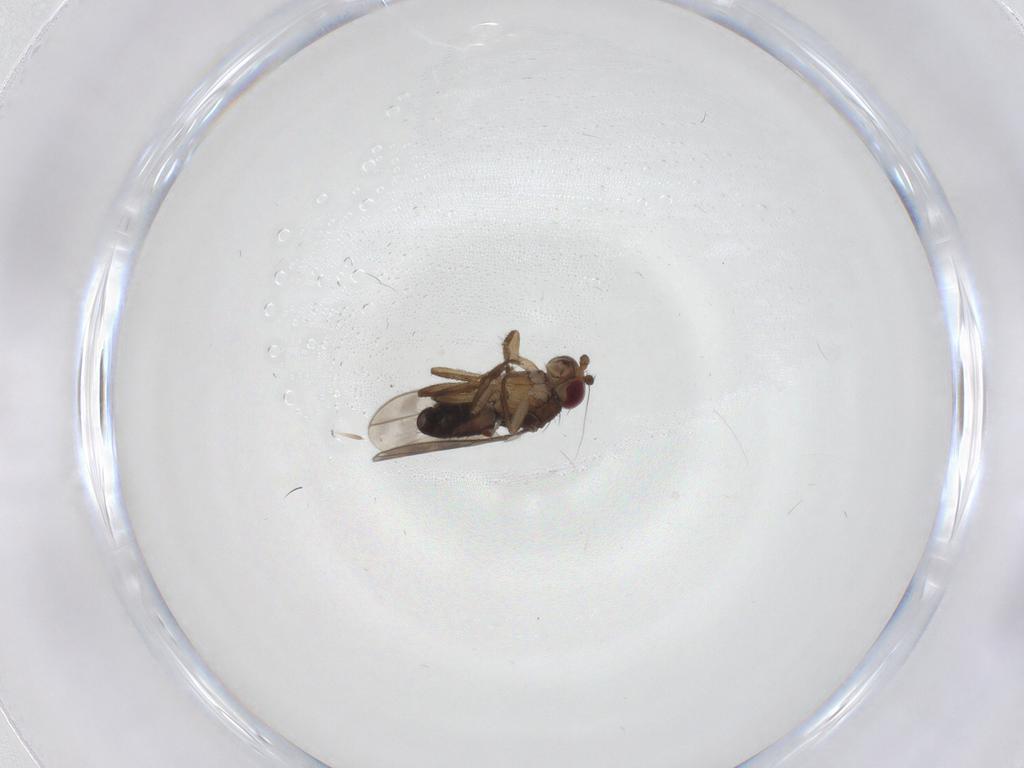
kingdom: Animalia
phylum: Arthropoda
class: Insecta
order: Diptera
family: Sphaeroceridae
